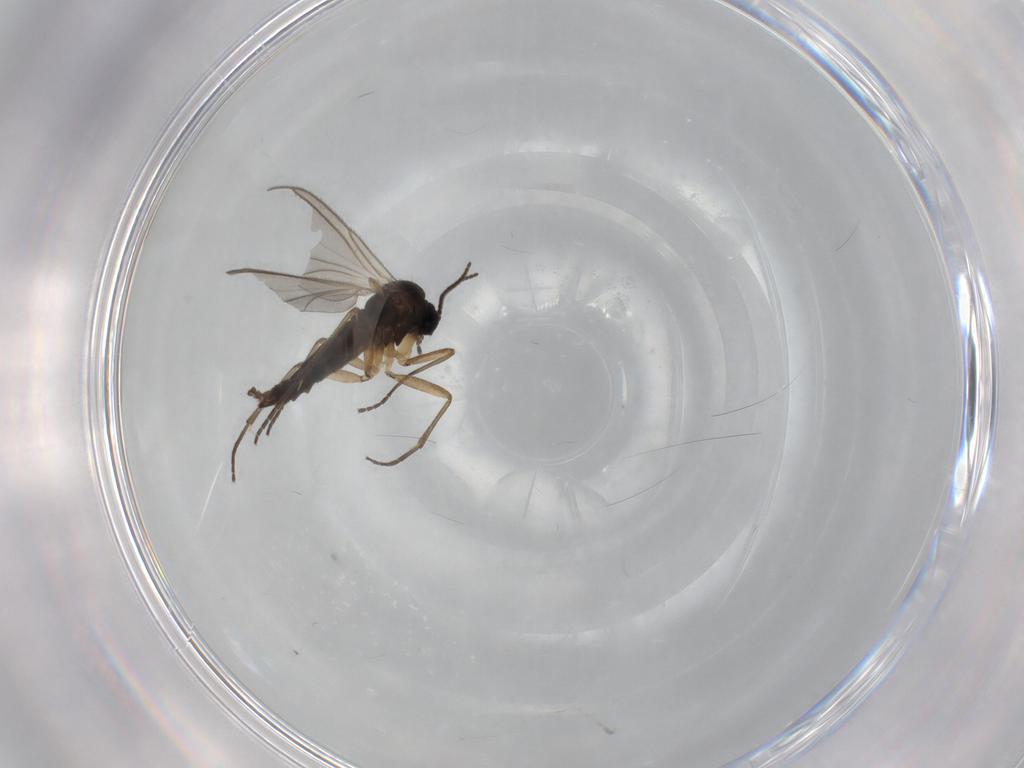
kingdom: Animalia
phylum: Arthropoda
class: Insecta
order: Diptera
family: Sciaridae
